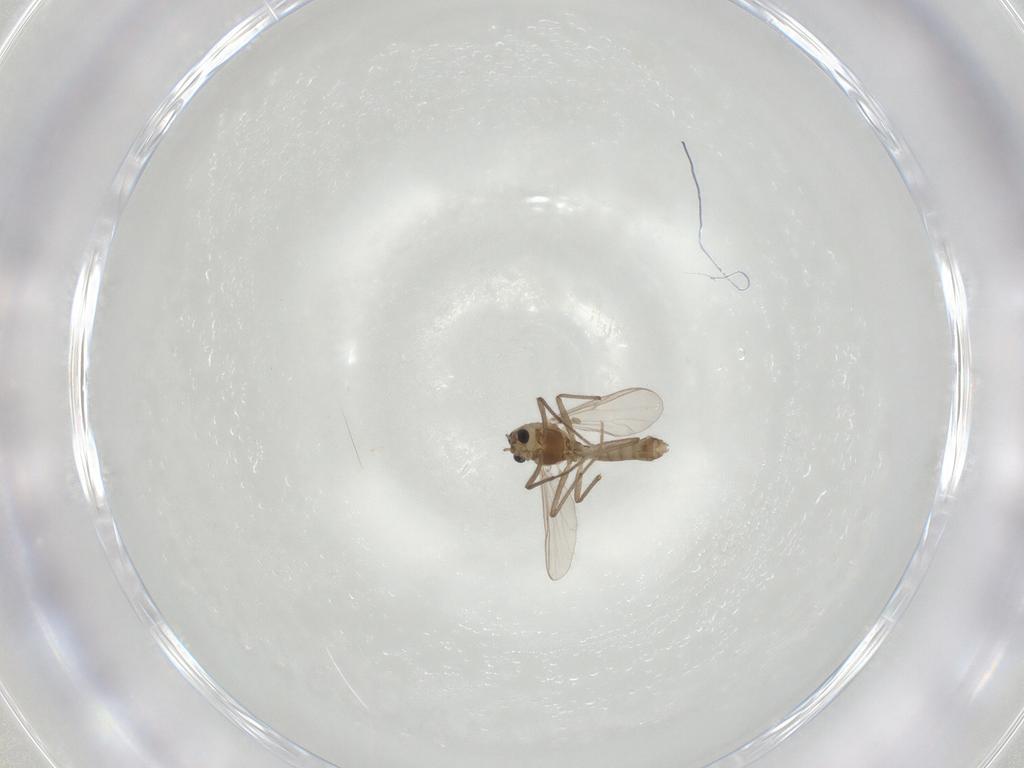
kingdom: Animalia
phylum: Arthropoda
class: Insecta
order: Diptera
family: Chironomidae
